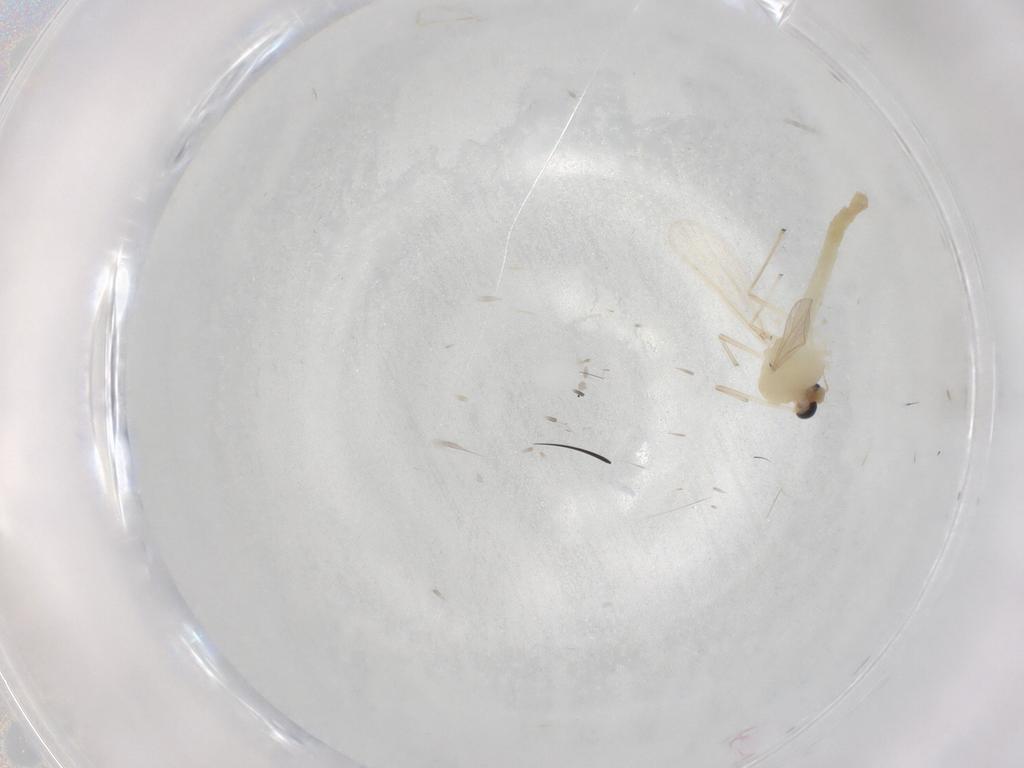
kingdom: Animalia
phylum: Arthropoda
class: Insecta
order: Diptera
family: Chironomidae
